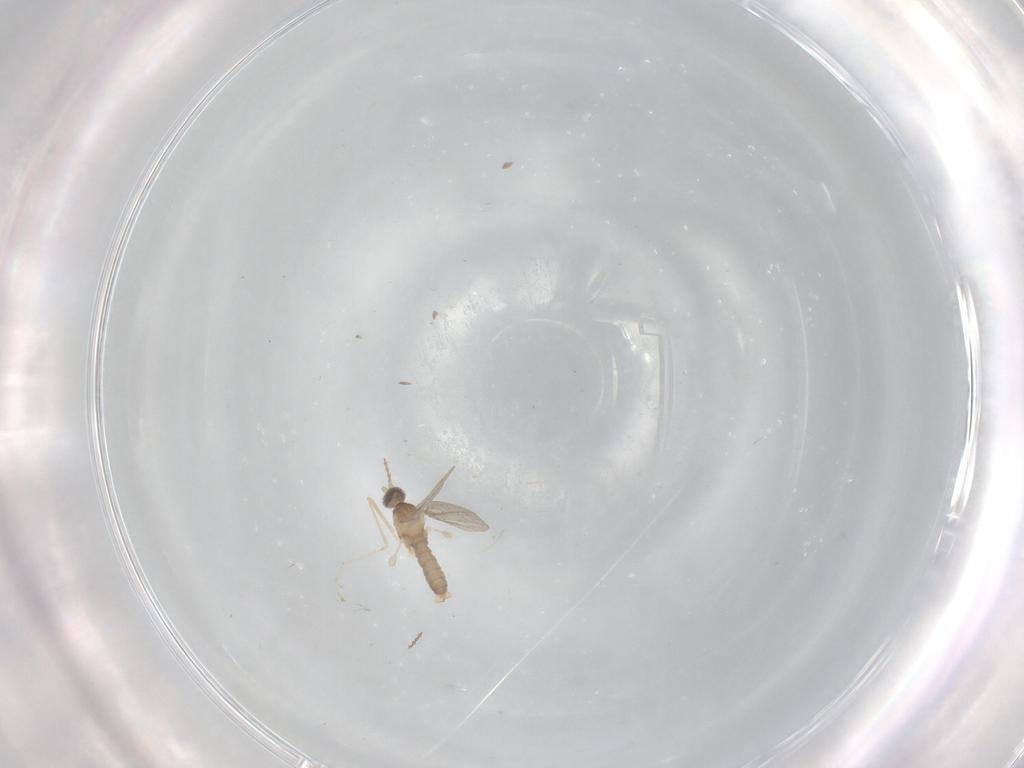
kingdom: Animalia
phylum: Arthropoda
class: Insecta
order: Diptera
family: Cecidomyiidae
